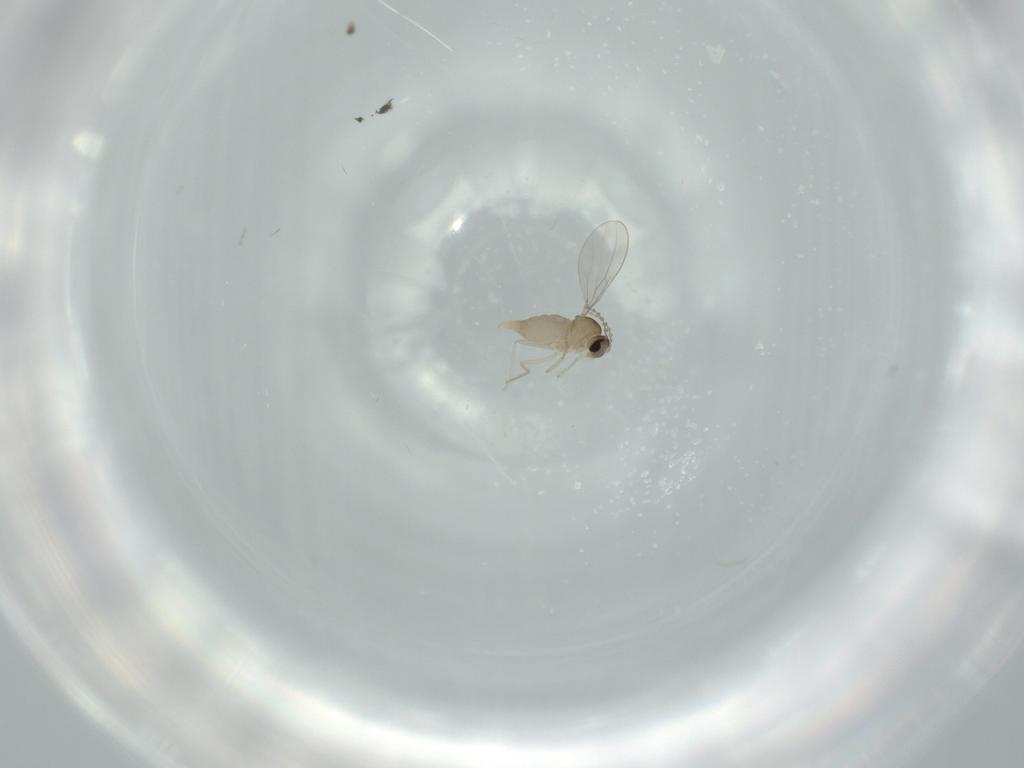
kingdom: Animalia
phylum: Arthropoda
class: Insecta
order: Diptera
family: Cecidomyiidae
